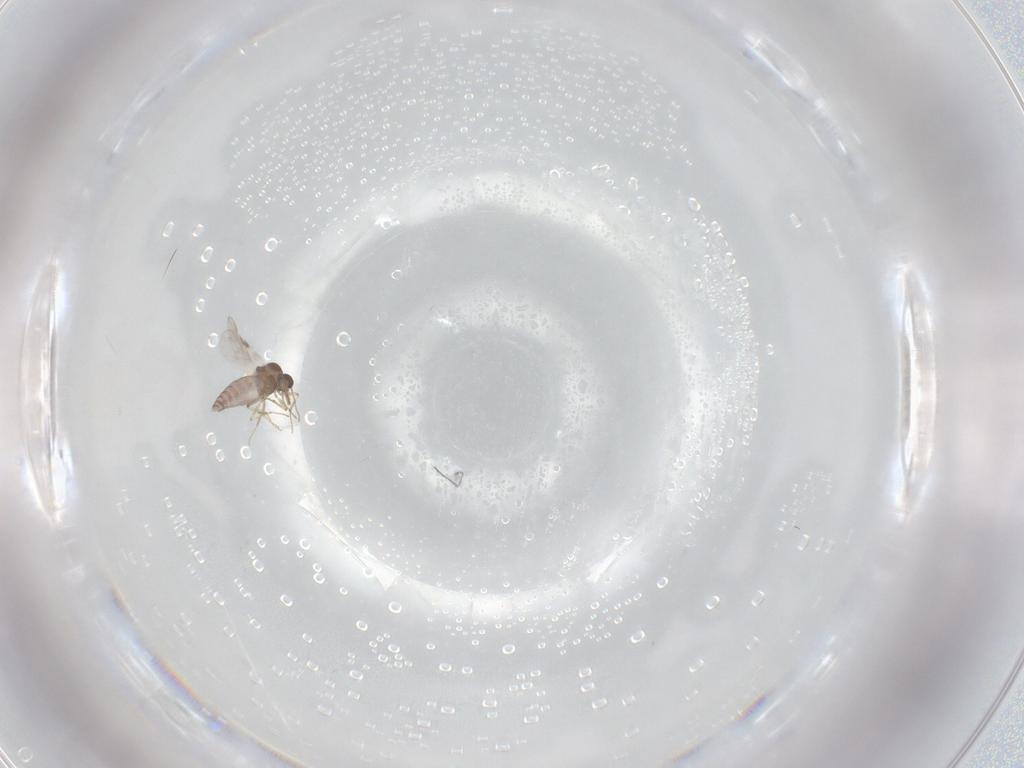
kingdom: Animalia
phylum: Arthropoda
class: Insecta
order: Diptera
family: Psychodidae
